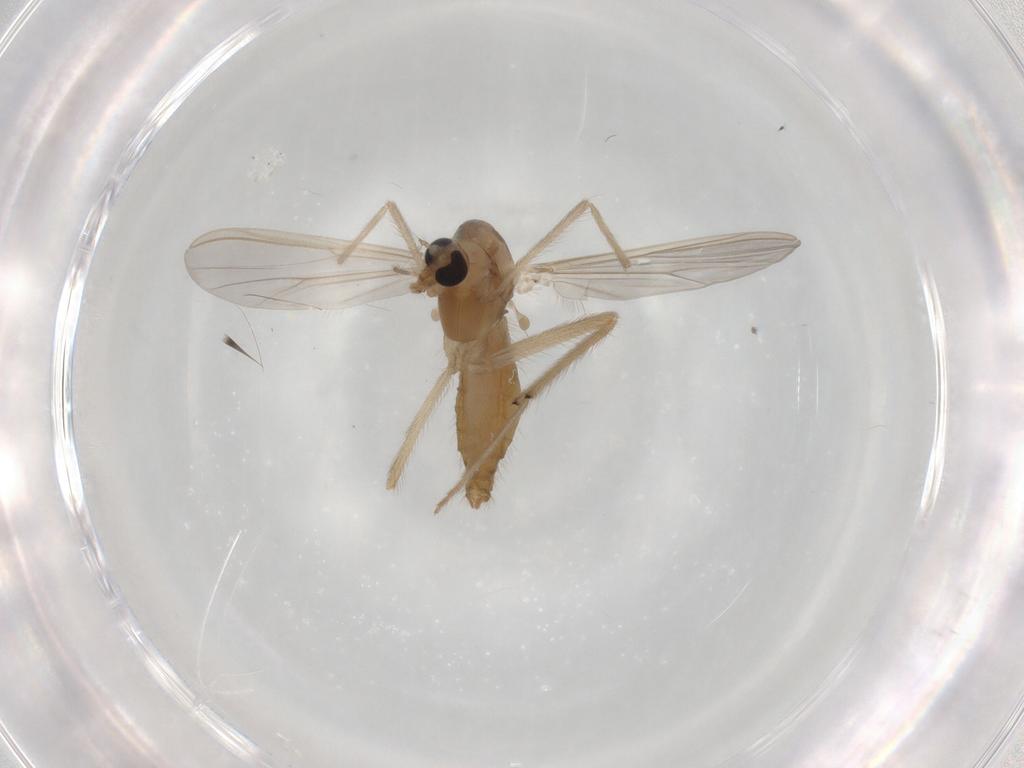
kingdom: Animalia
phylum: Arthropoda
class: Insecta
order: Diptera
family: Chironomidae
